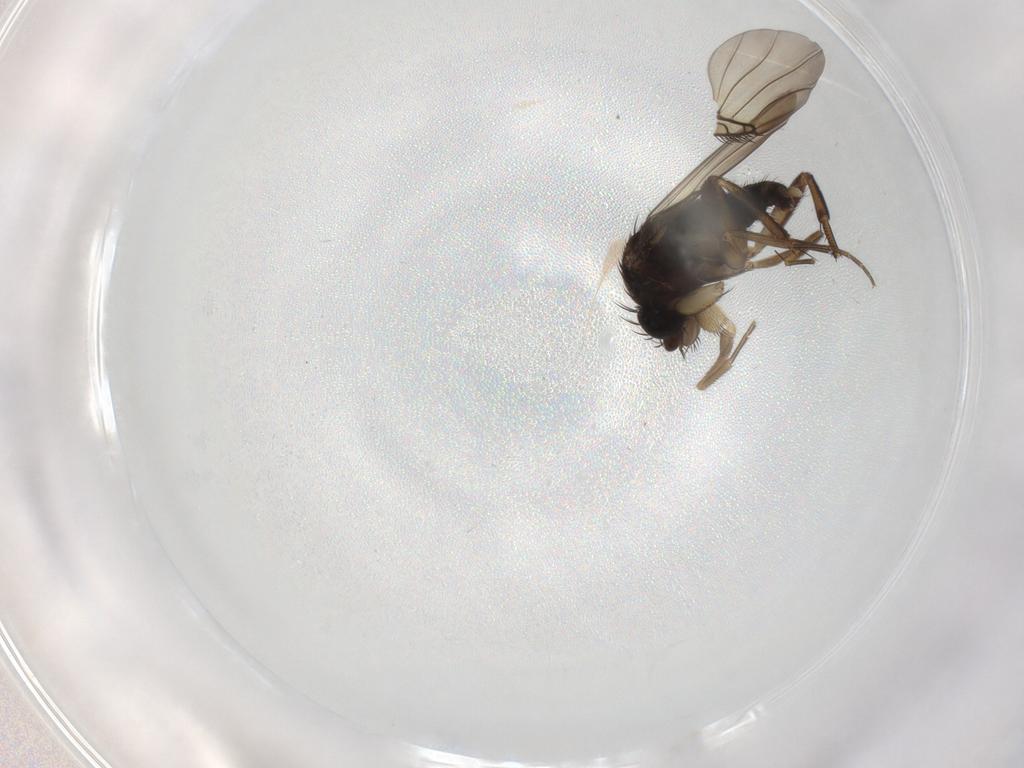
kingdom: Animalia
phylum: Arthropoda
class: Insecta
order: Diptera
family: Phoridae
